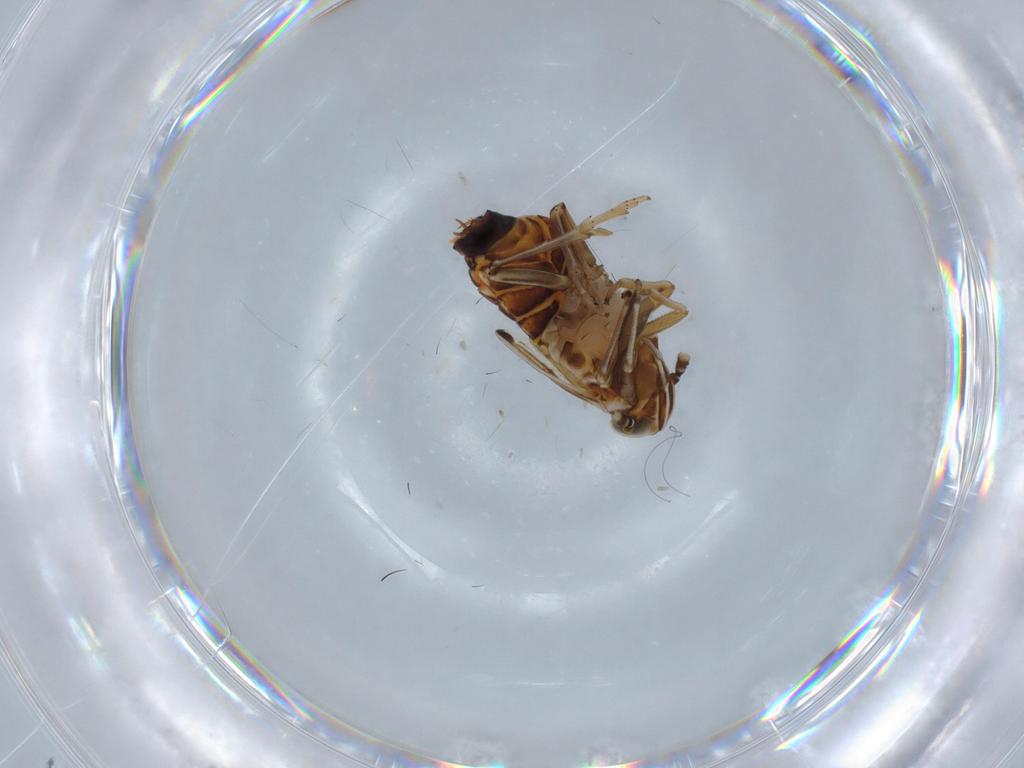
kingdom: Animalia
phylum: Arthropoda
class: Insecta
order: Hemiptera
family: Delphacidae
